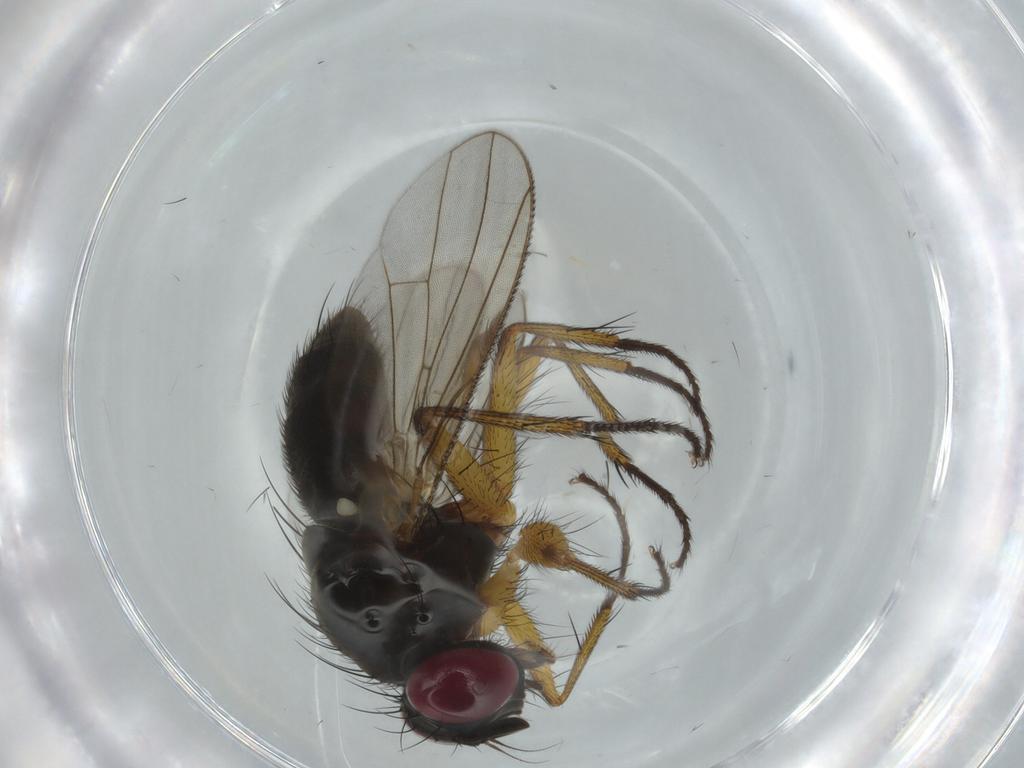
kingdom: Animalia
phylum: Arthropoda
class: Insecta
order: Diptera
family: Muscidae
